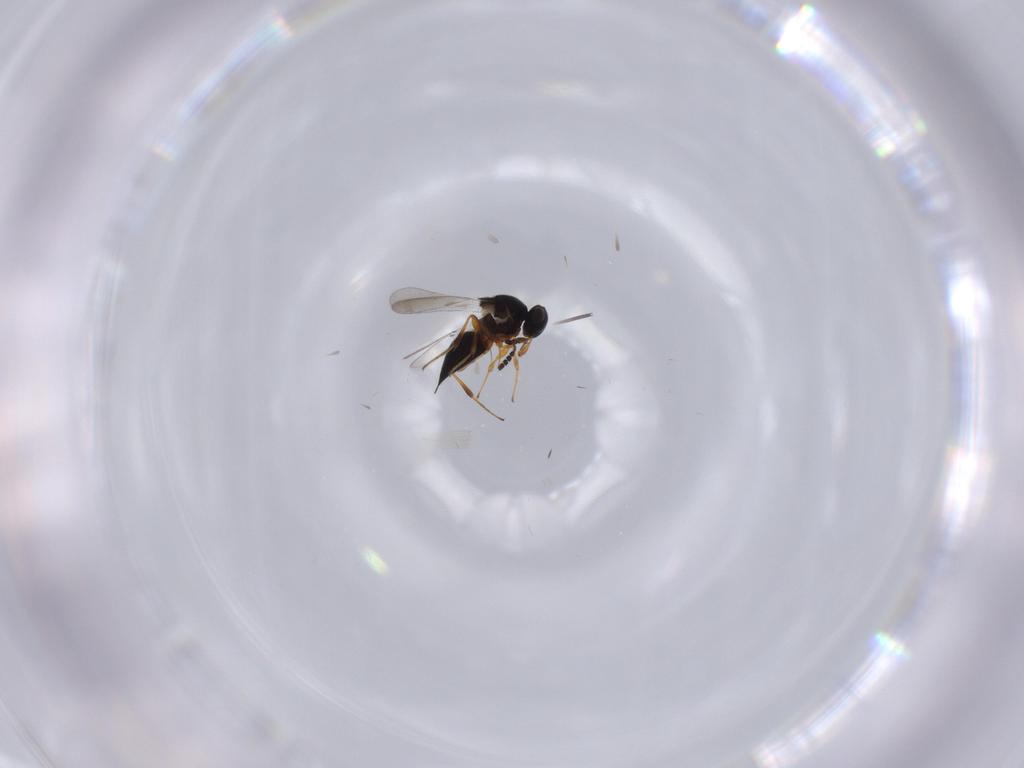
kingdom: Animalia
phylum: Arthropoda
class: Insecta
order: Hymenoptera
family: Platygastridae
